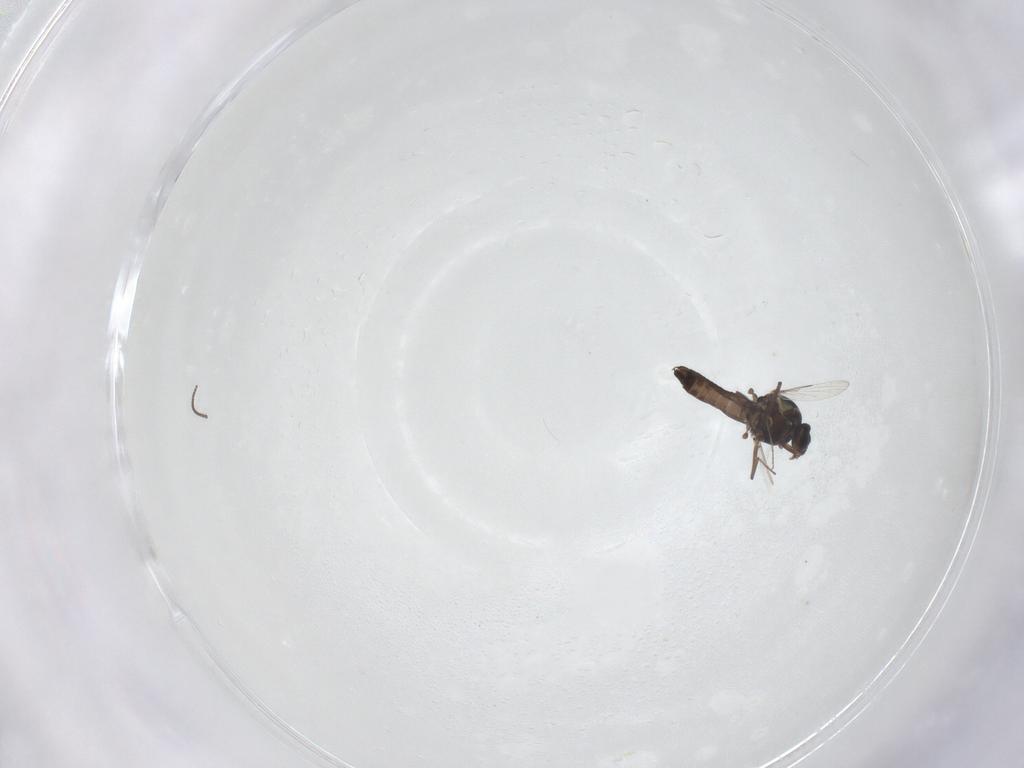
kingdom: Animalia
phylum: Arthropoda
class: Insecta
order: Diptera
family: Ceratopogonidae
